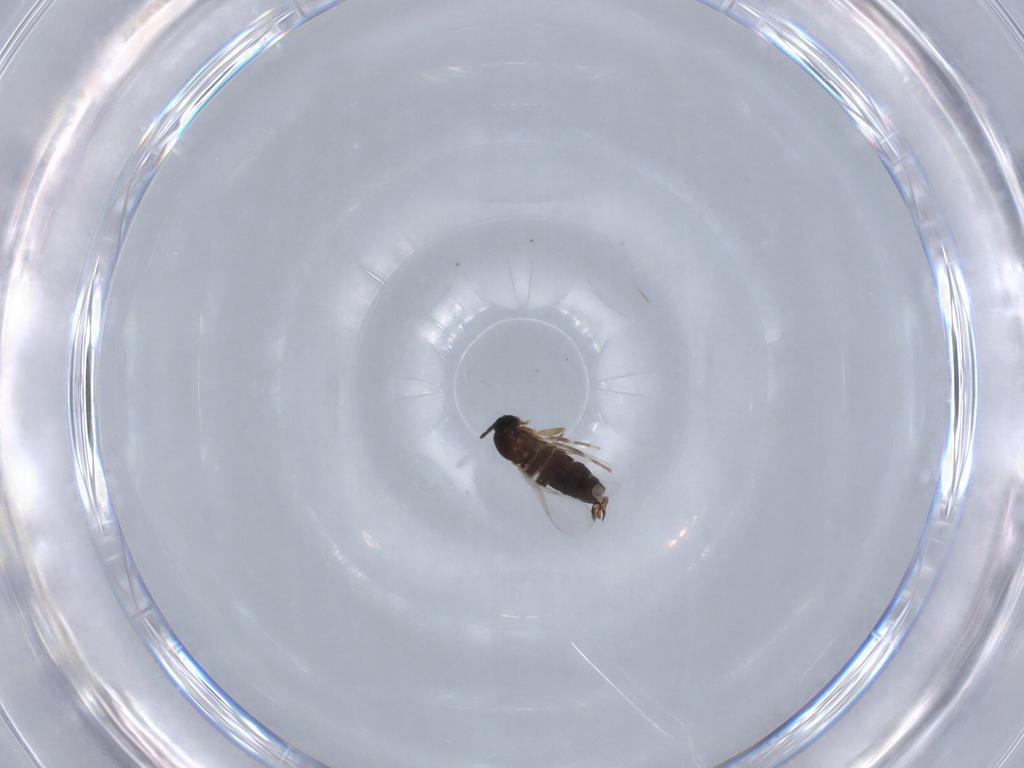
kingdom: Animalia
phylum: Arthropoda
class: Insecta
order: Diptera
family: Scatopsidae
